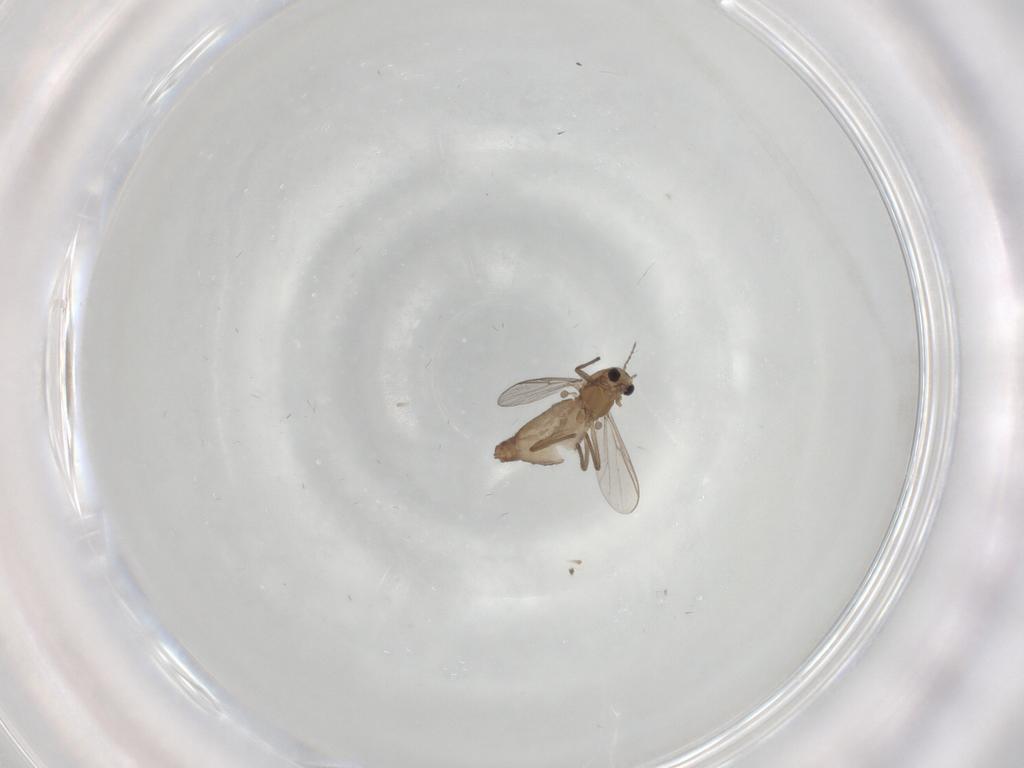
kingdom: Animalia
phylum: Arthropoda
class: Insecta
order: Diptera
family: Chironomidae
